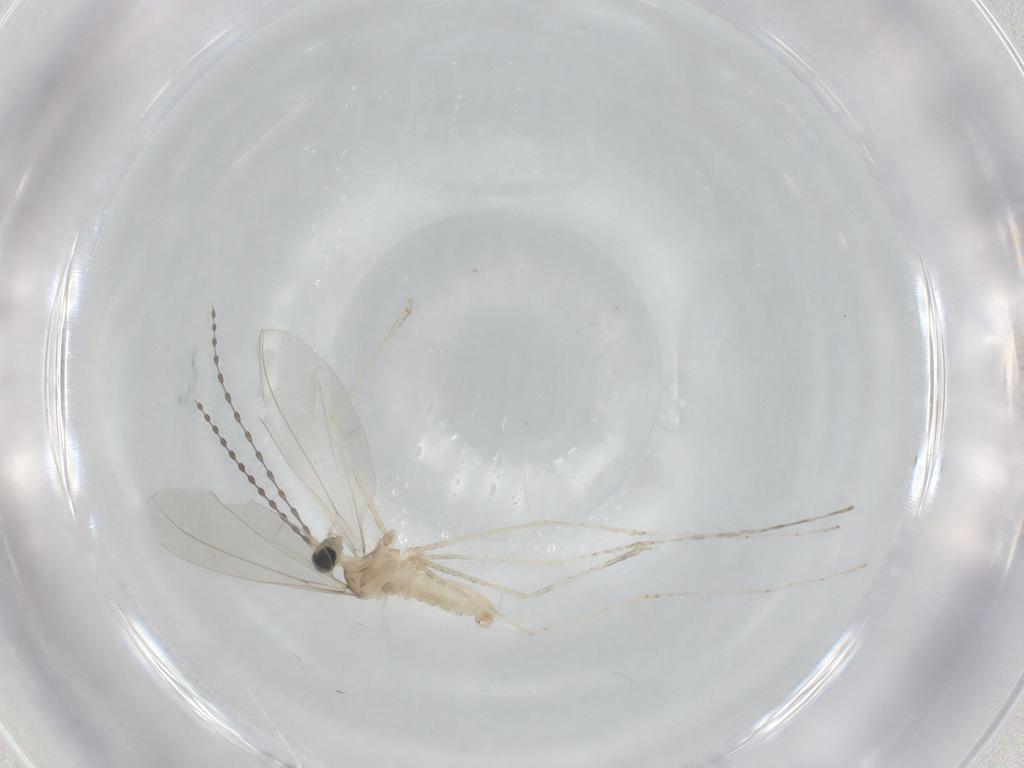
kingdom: Animalia
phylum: Arthropoda
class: Insecta
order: Diptera
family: Cecidomyiidae
